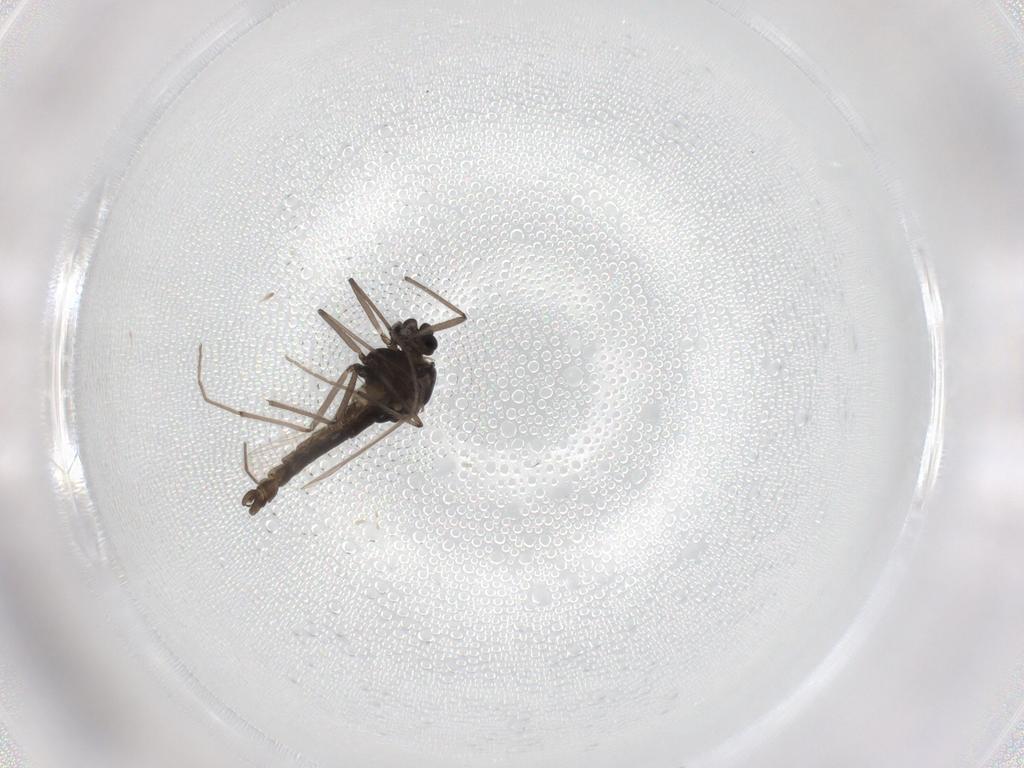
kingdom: Animalia
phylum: Arthropoda
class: Insecta
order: Diptera
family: Chironomidae
